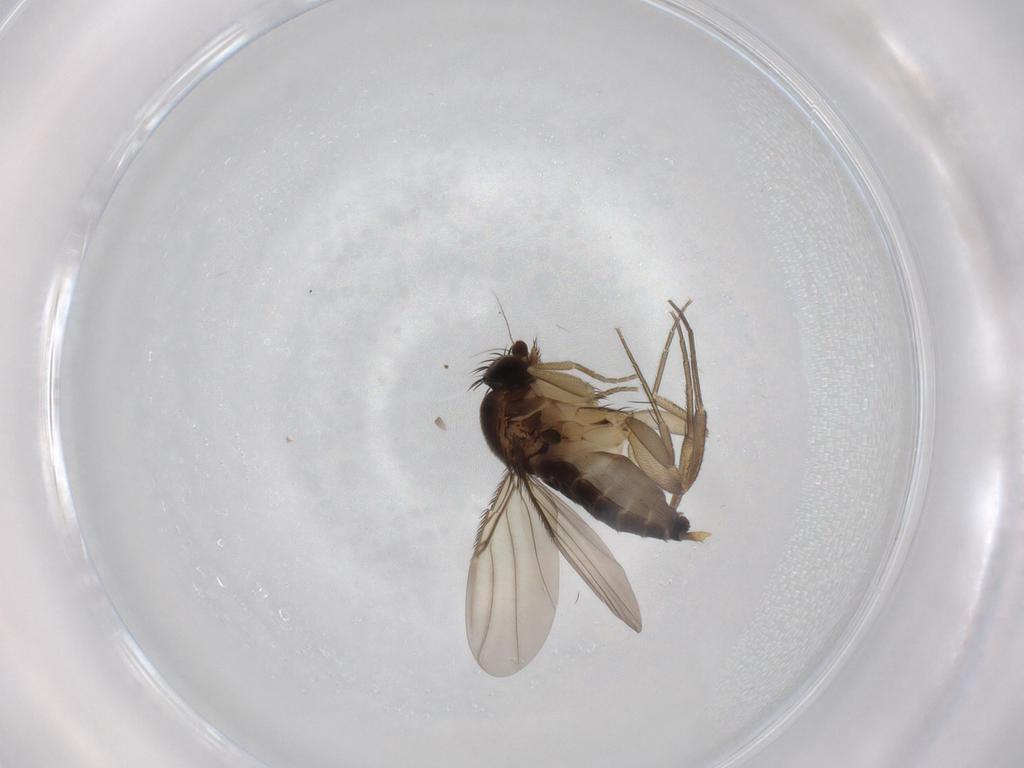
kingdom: Animalia
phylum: Arthropoda
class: Insecta
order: Diptera
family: Phoridae
